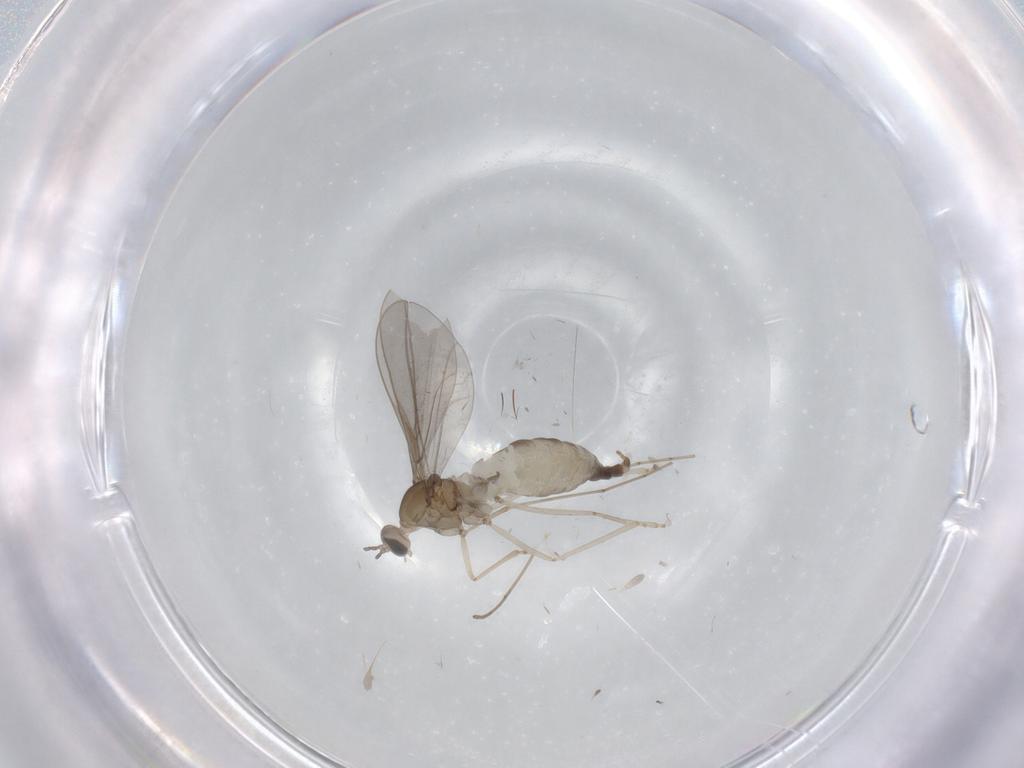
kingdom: Animalia
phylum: Arthropoda
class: Insecta
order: Diptera
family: Cecidomyiidae
